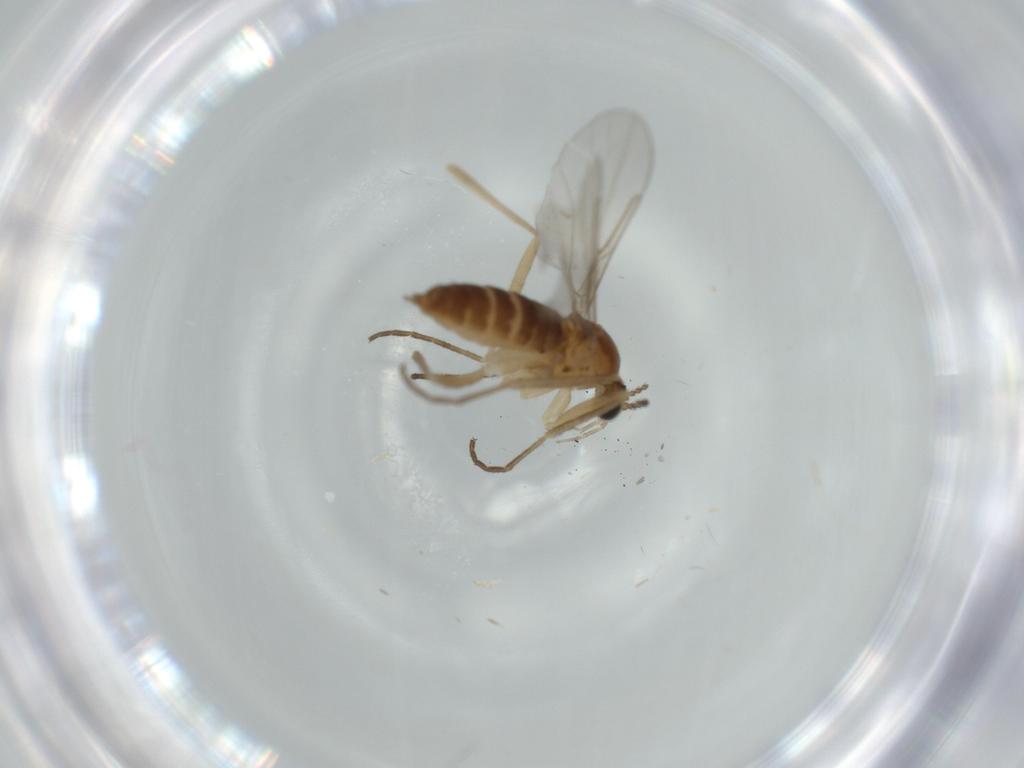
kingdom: Animalia
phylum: Arthropoda
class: Insecta
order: Diptera
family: Cecidomyiidae
